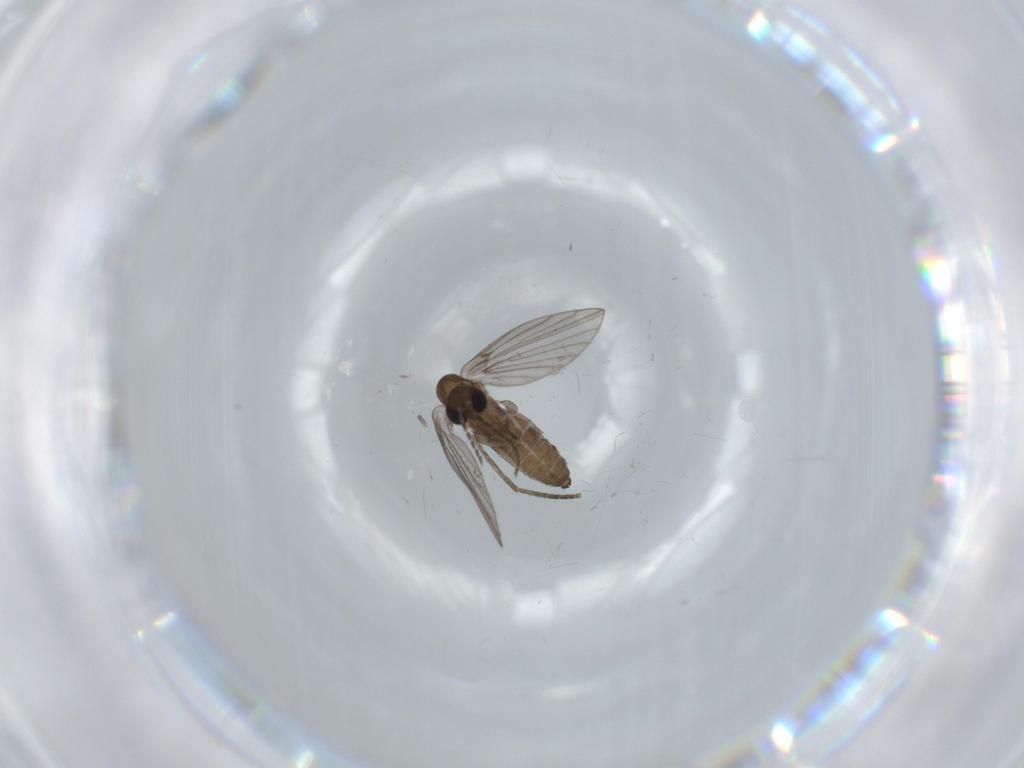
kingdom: Animalia
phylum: Arthropoda
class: Insecta
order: Diptera
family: Psychodidae
